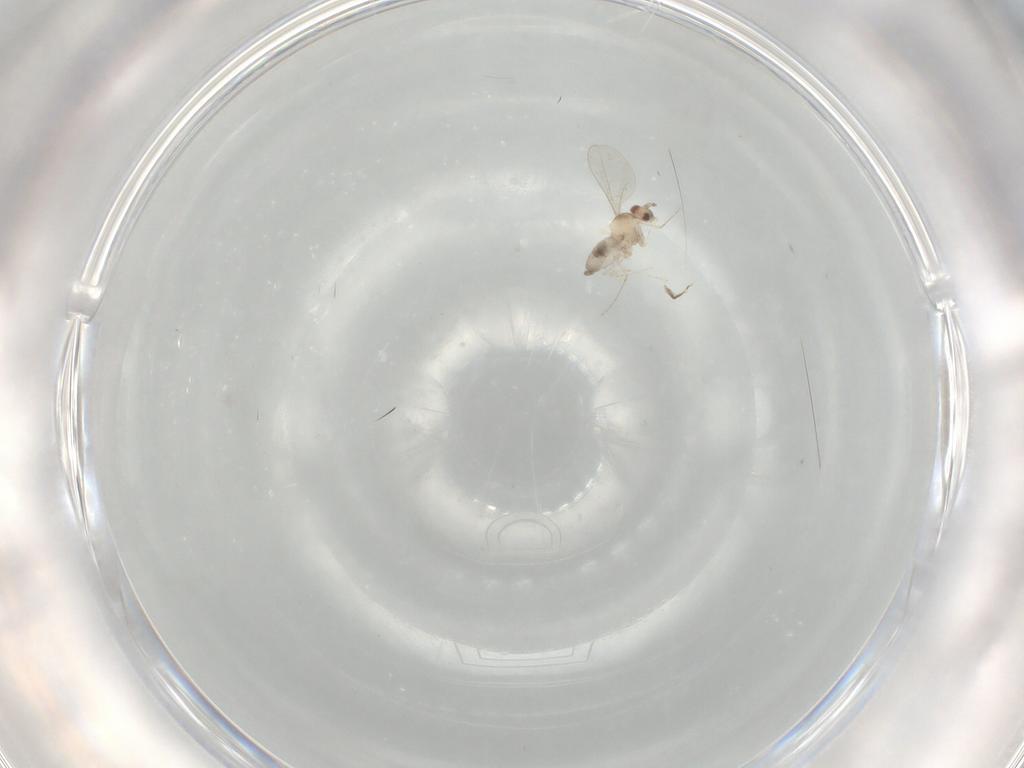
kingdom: Animalia
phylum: Arthropoda
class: Insecta
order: Diptera
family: Cecidomyiidae
